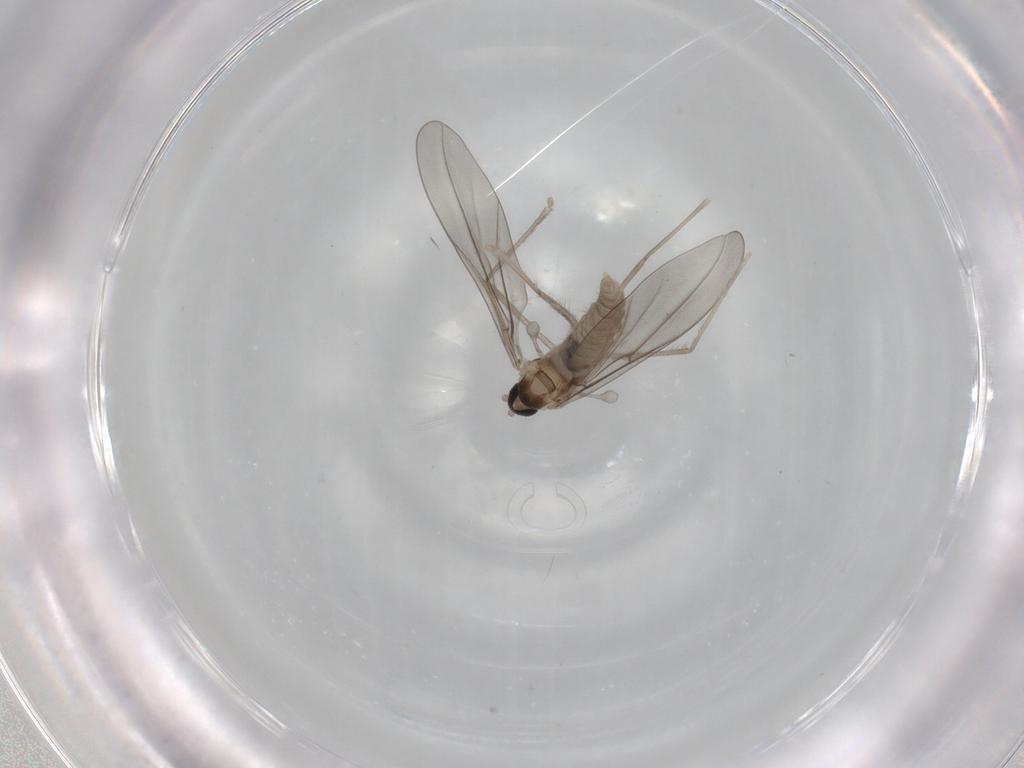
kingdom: Animalia
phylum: Arthropoda
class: Insecta
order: Diptera
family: Cecidomyiidae
